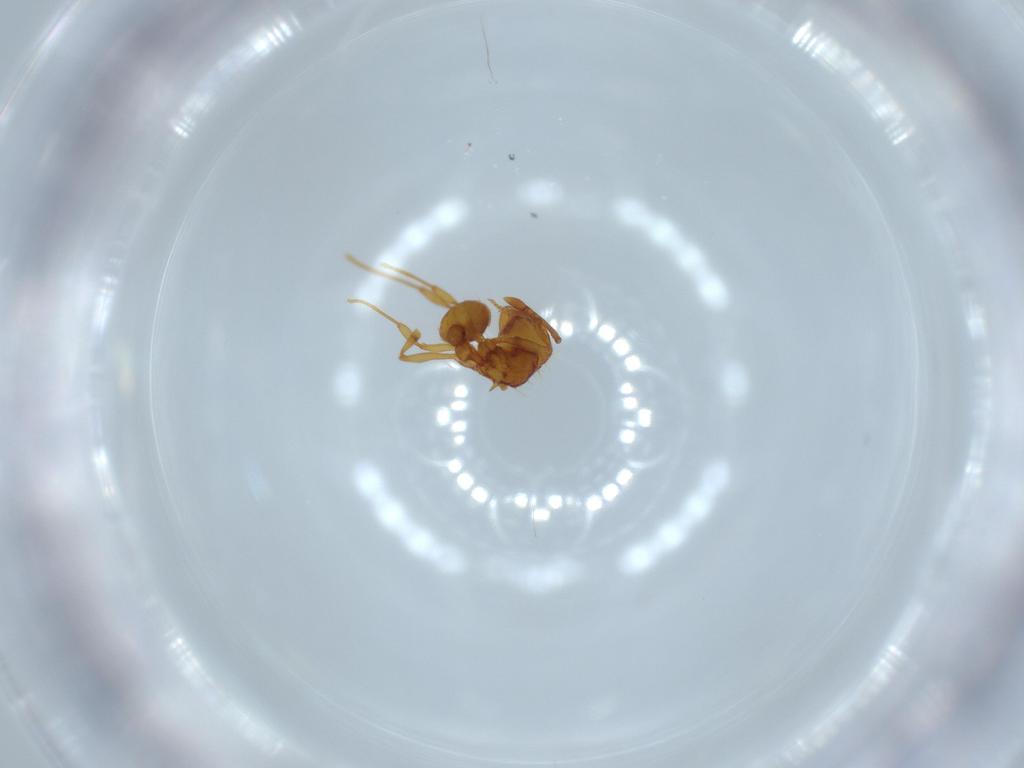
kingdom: Animalia
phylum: Arthropoda
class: Insecta
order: Hymenoptera
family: Formicidae
